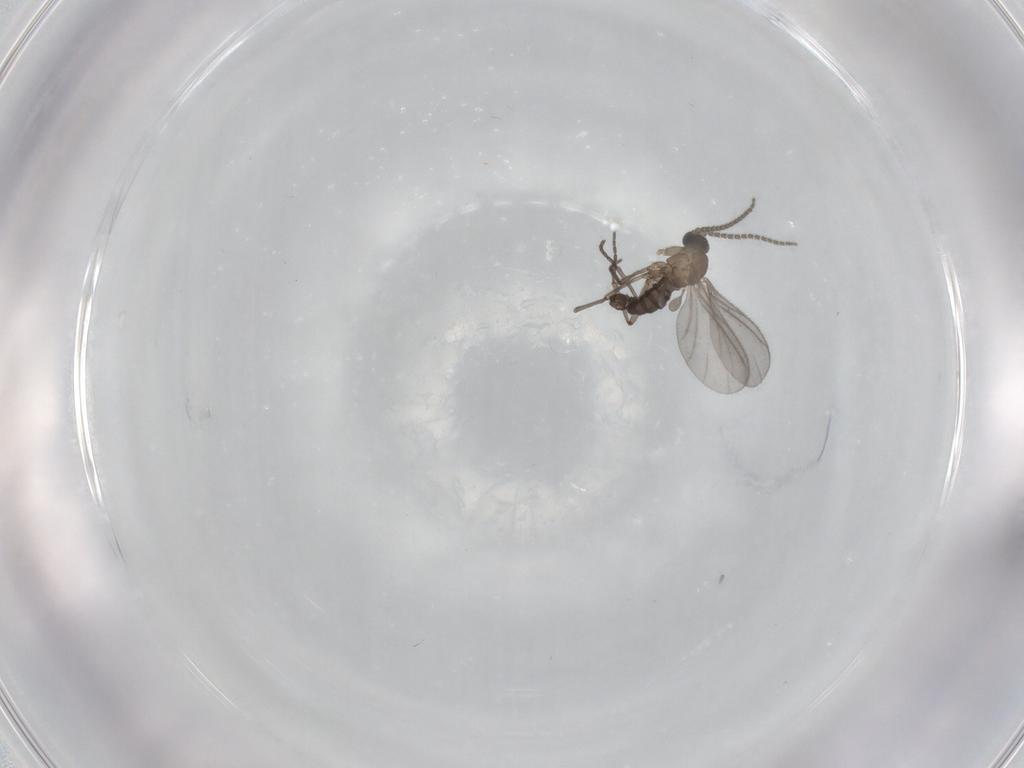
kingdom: Animalia
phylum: Arthropoda
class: Insecta
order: Diptera
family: Sciaridae
